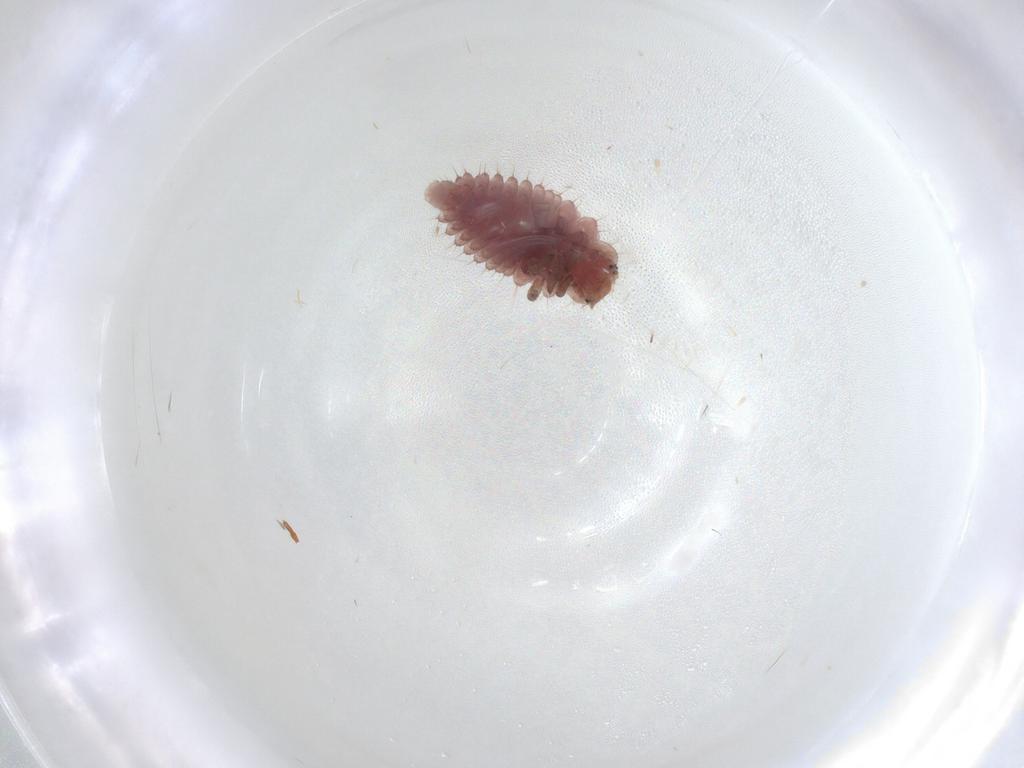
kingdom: Animalia
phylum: Arthropoda
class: Insecta
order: Coleoptera
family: Coccinellidae
